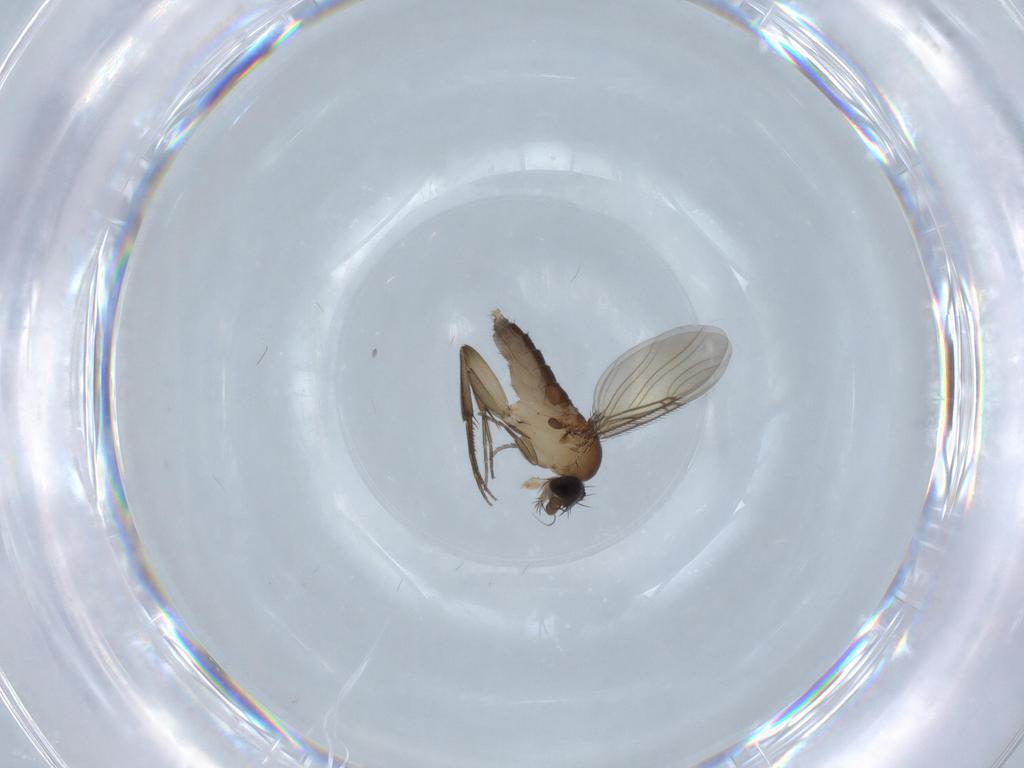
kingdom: Animalia
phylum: Arthropoda
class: Insecta
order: Diptera
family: Phoridae
